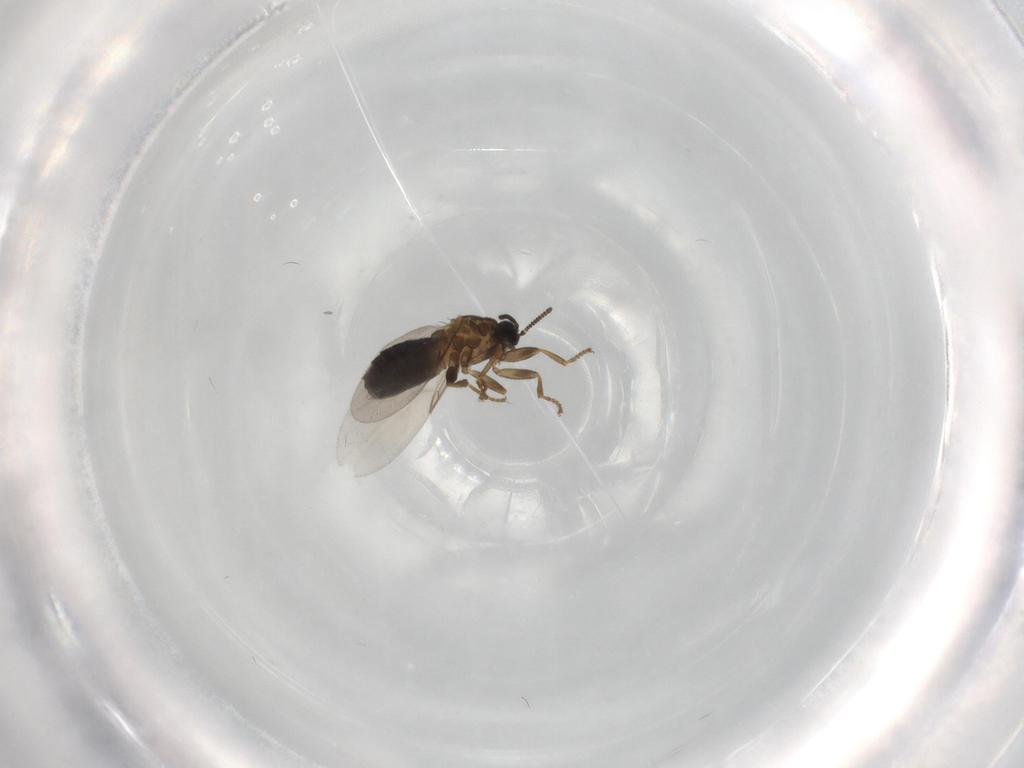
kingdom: Animalia
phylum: Arthropoda
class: Insecta
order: Diptera
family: Scatopsidae
